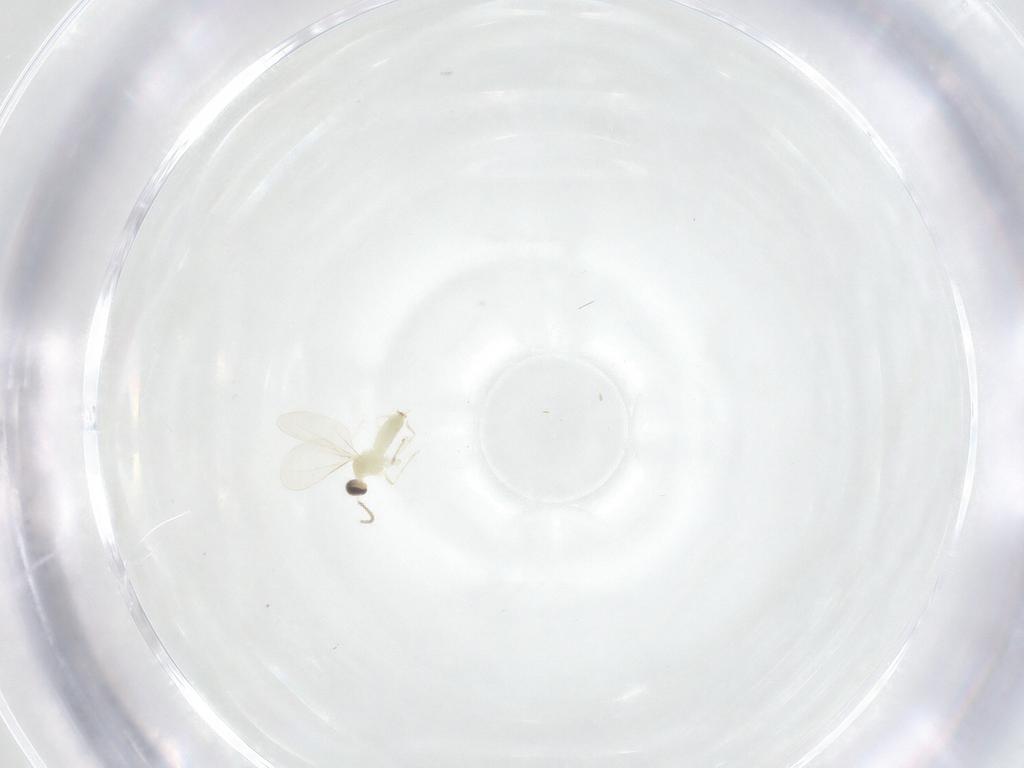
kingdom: Animalia
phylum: Arthropoda
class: Insecta
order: Diptera
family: Cecidomyiidae
